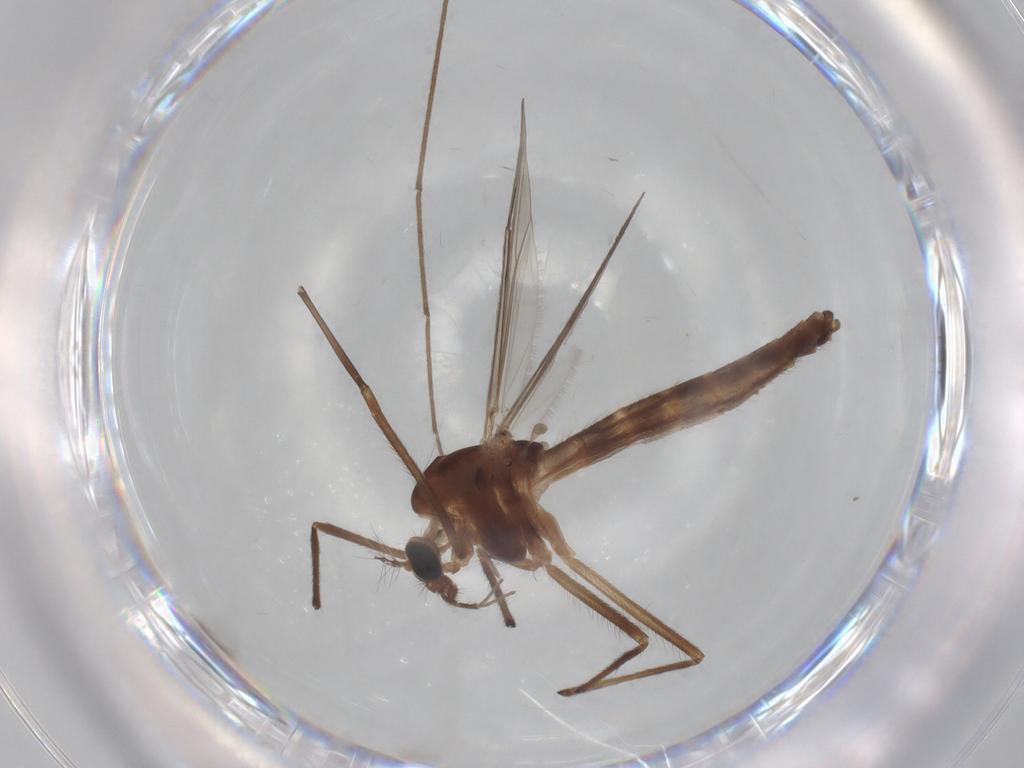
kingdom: Animalia
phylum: Arthropoda
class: Insecta
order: Diptera
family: Chironomidae
